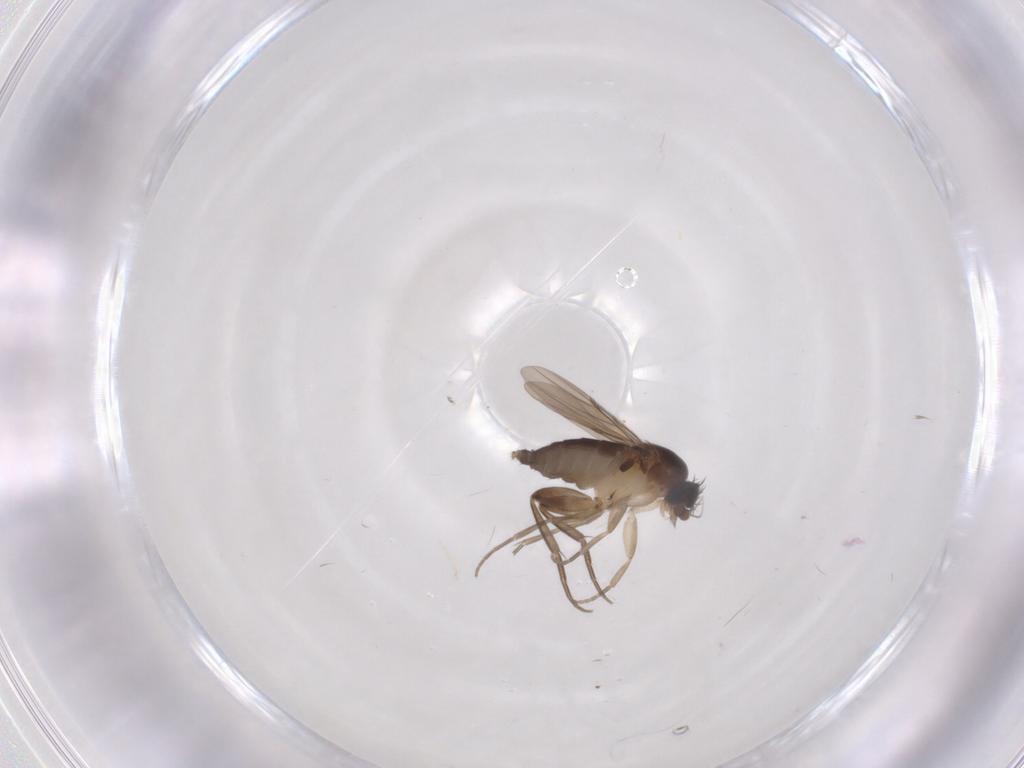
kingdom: Animalia
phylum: Arthropoda
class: Insecta
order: Diptera
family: Phoridae
